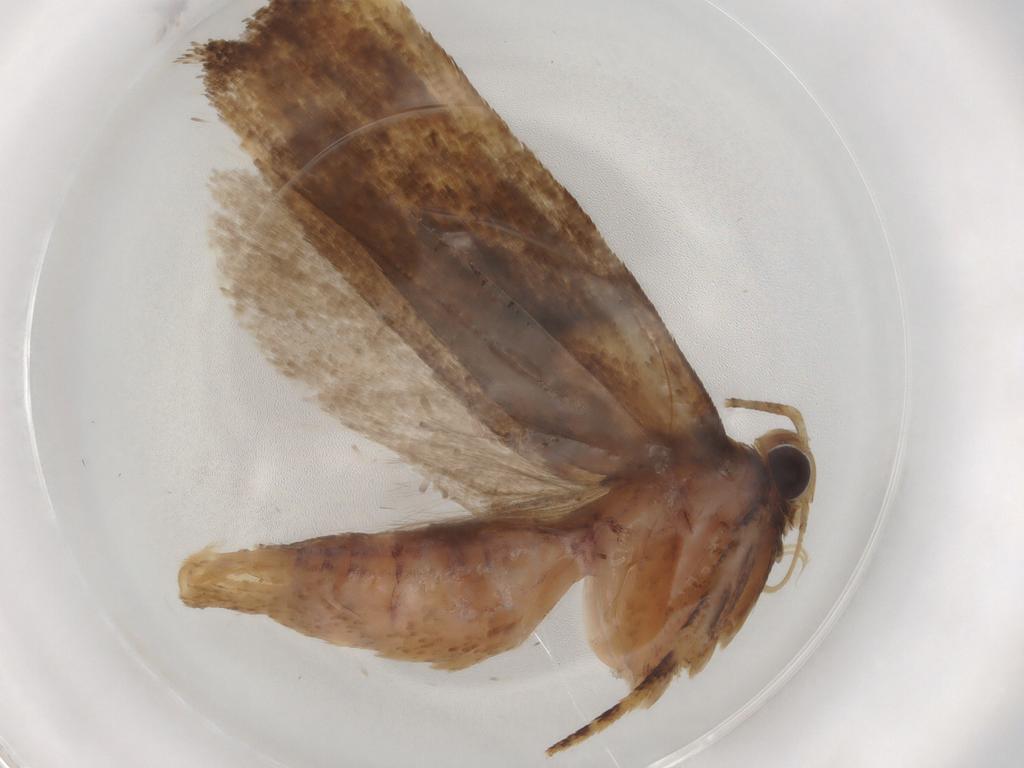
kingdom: Animalia
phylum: Arthropoda
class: Insecta
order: Lepidoptera
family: Gelechiidae
